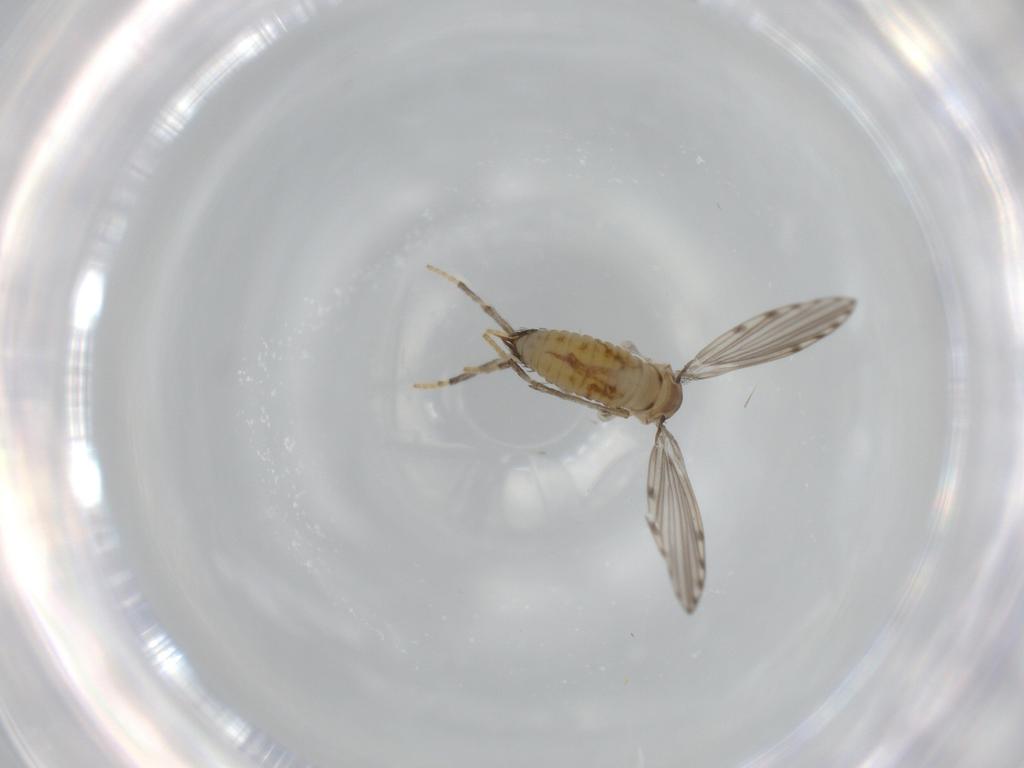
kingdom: Animalia
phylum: Arthropoda
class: Insecta
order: Diptera
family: Psychodidae
